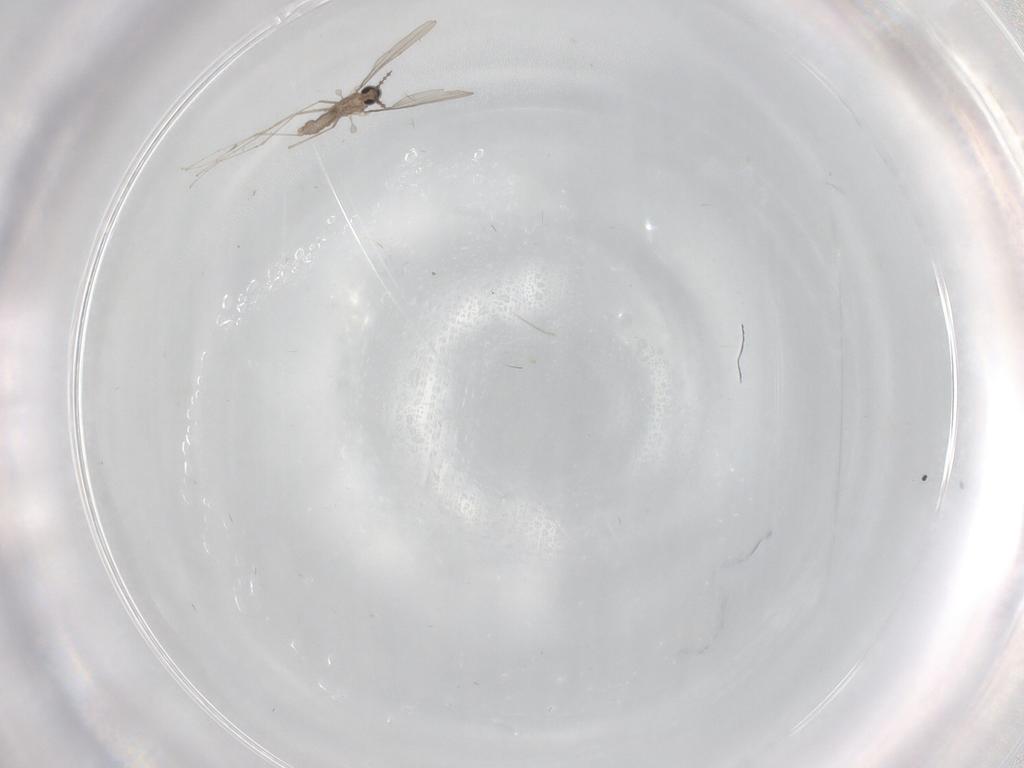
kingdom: Animalia
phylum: Arthropoda
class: Insecta
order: Diptera
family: Cecidomyiidae
